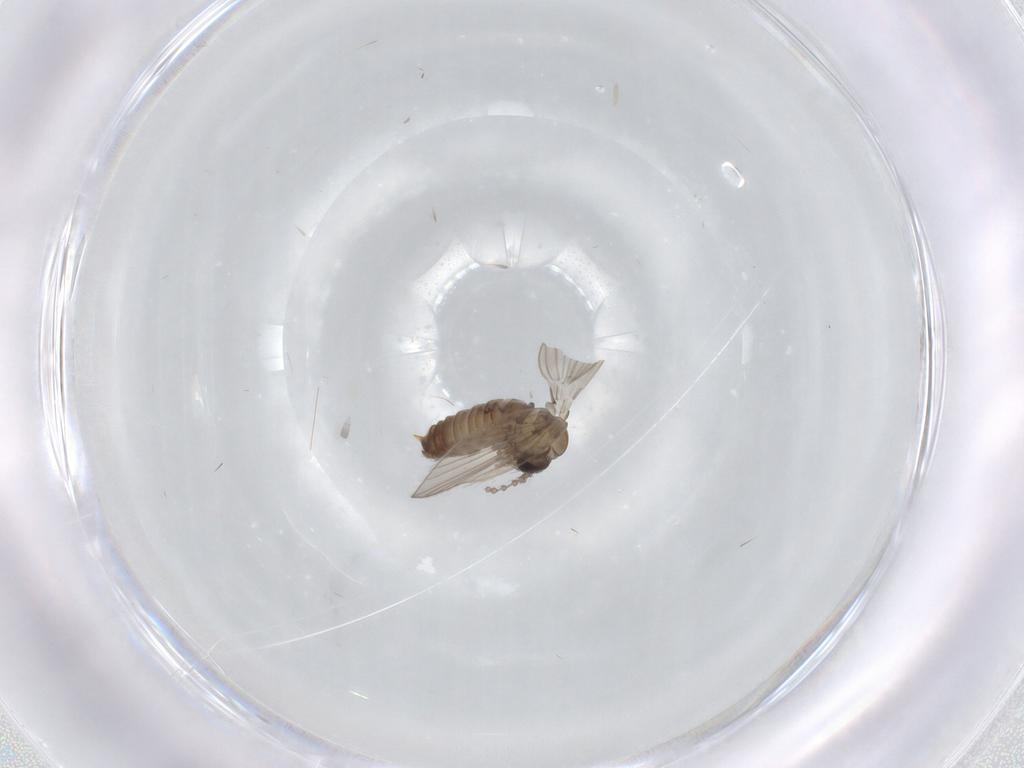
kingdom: Animalia
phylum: Arthropoda
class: Insecta
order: Diptera
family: Psychodidae
